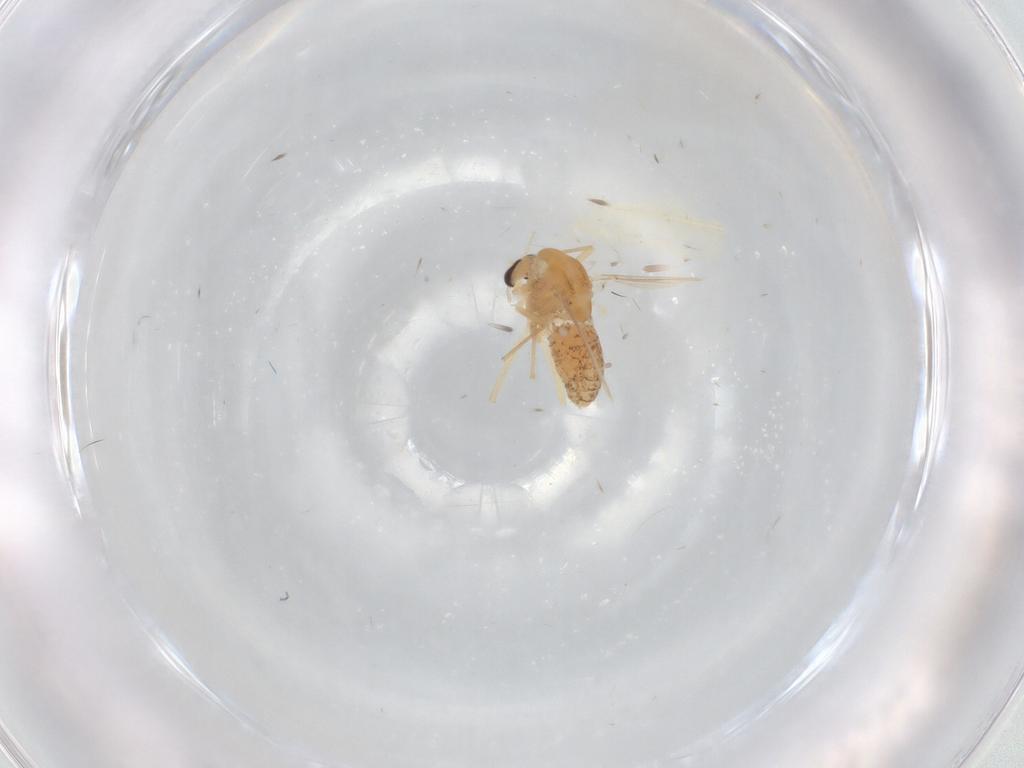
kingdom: Animalia
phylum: Arthropoda
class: Insecta
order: Diptera
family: Chironomidae
